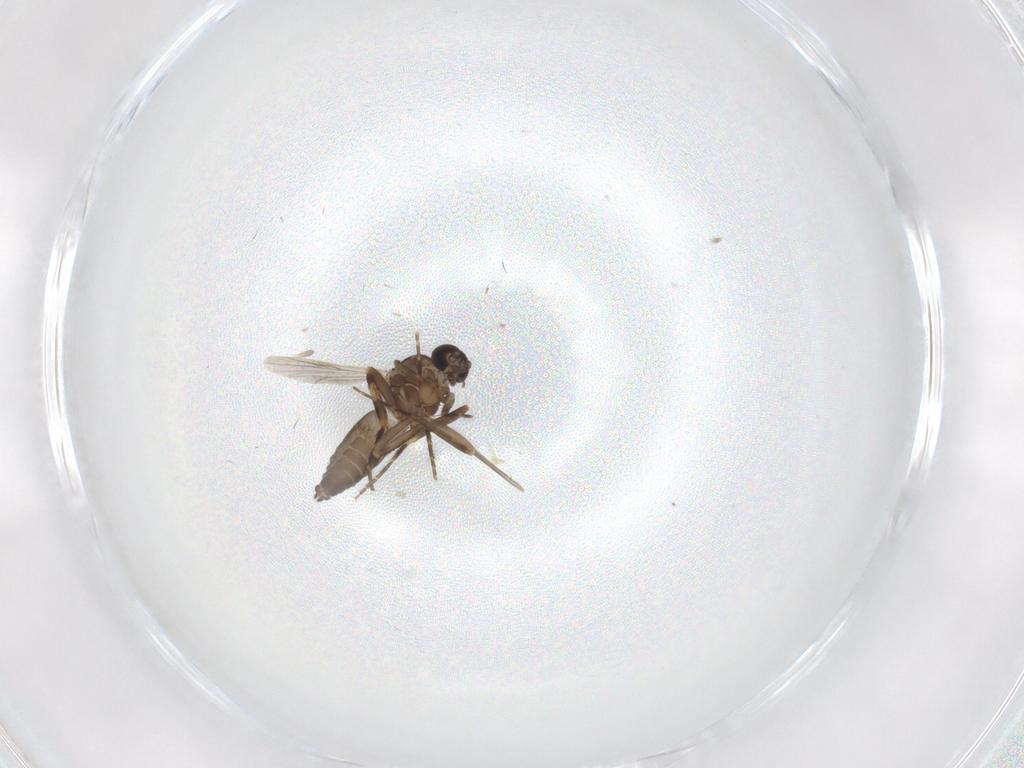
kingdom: Animalia
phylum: Arthropoda
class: Insecta
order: Diptera
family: Ceratopogonidae
